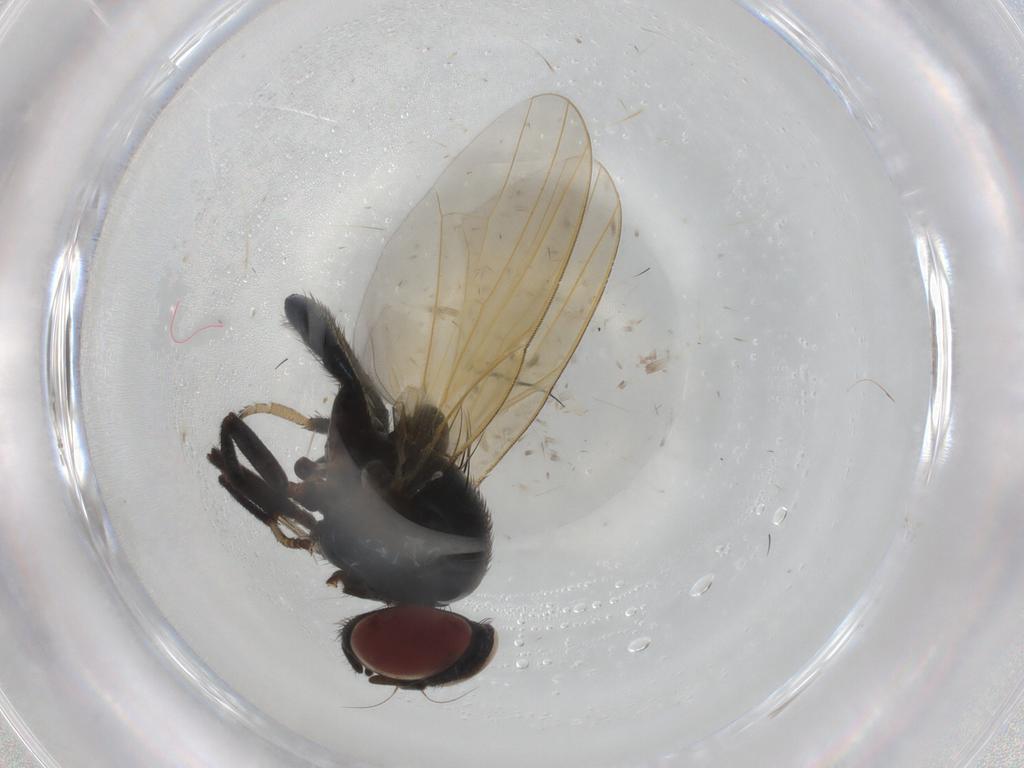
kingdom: Animalia
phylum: Arthropoda
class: Insecta
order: Diptera
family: Lonchaeidae
